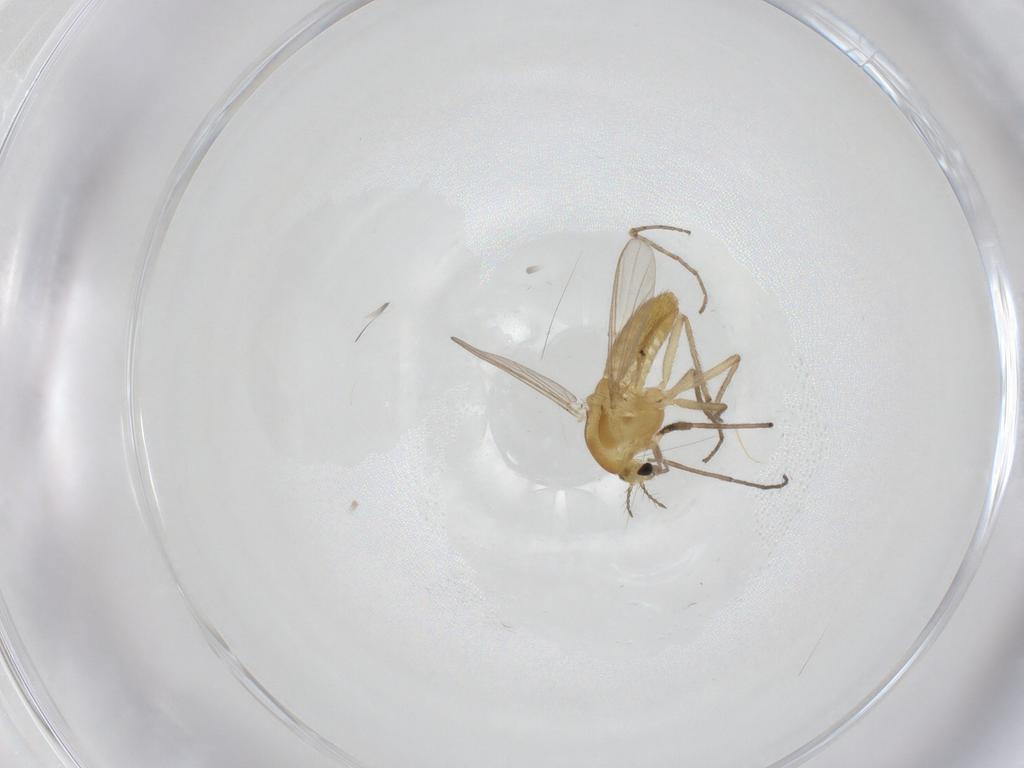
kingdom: Animalia
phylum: Arthropoda
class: Insecta
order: Diptera
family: Chironomidae
